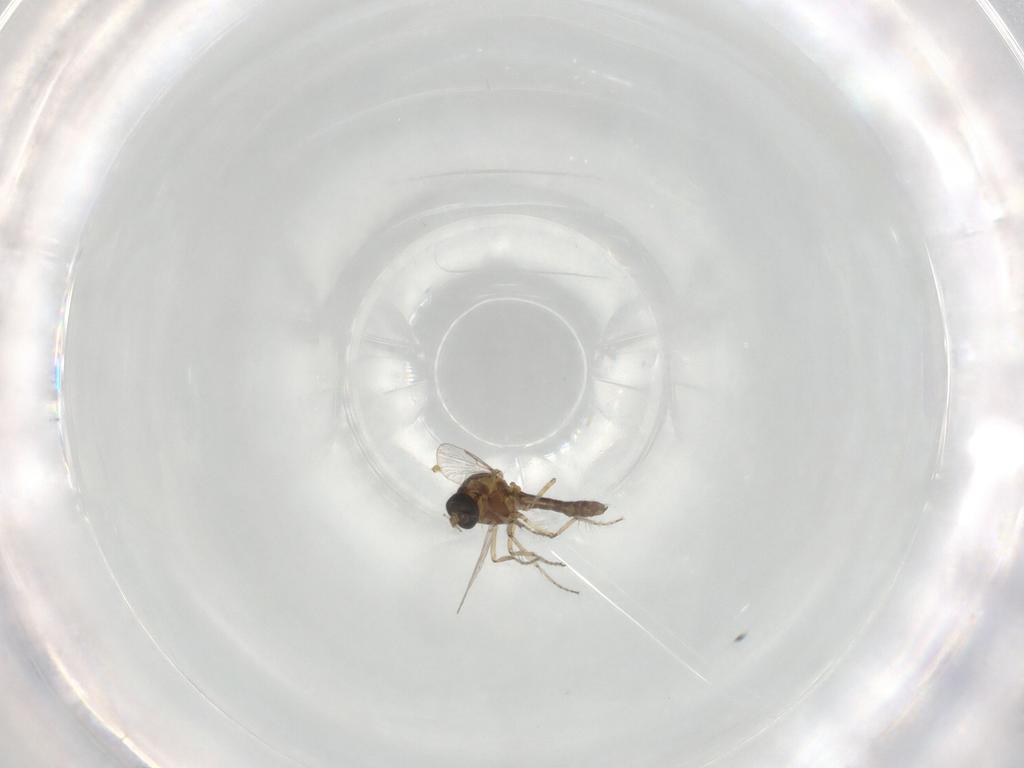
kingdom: Animalia
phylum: Arthropoda
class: Insecta
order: Diptera
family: Ceratopogonidae
